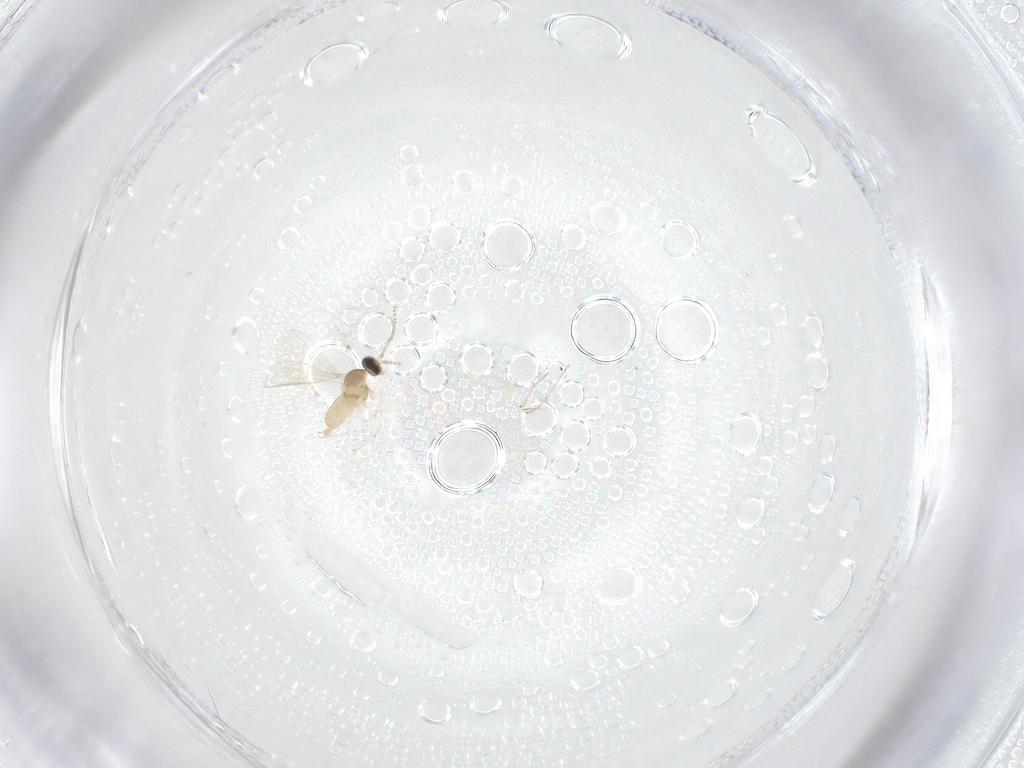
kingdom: Animalia
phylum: Arthropoda
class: Insecta
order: Diptera
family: Cecidomyiidae
